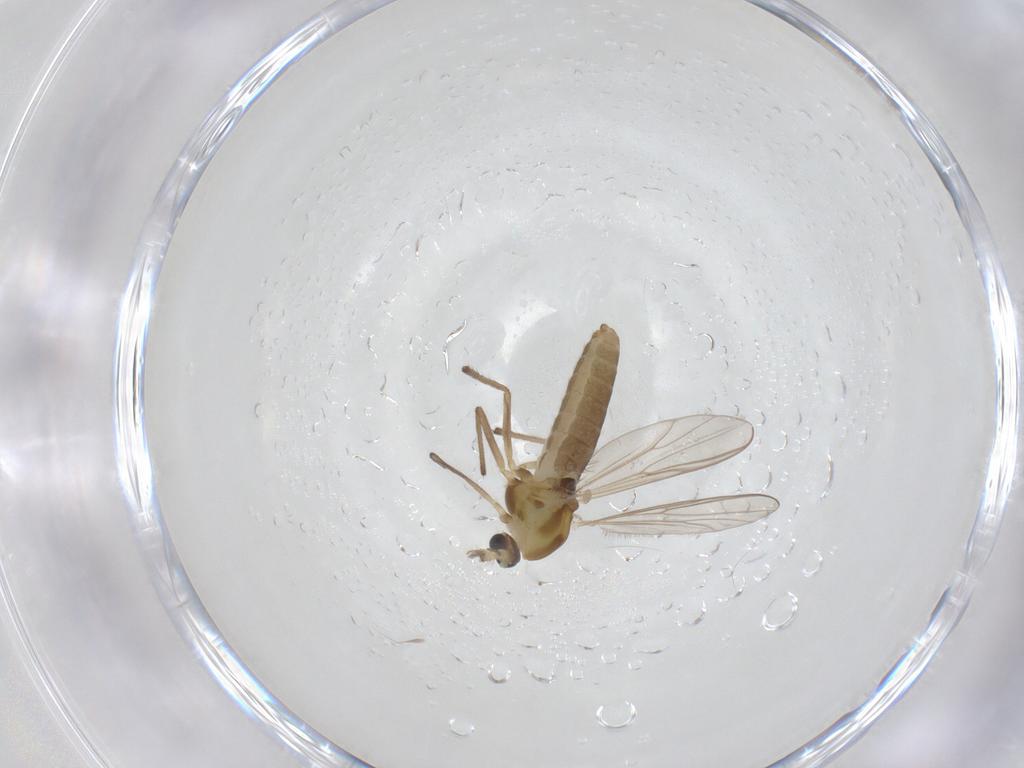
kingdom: Animalia
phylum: Arthropoda
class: Insecta
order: Diptera
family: Chironomidae
